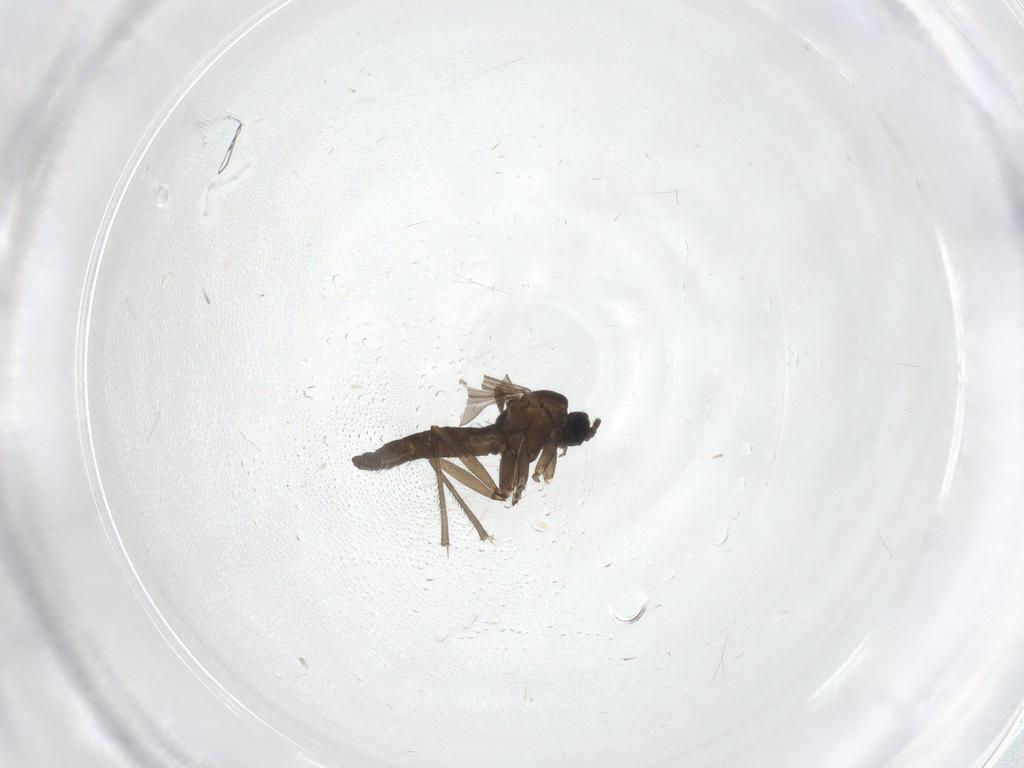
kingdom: Animalia
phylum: Arthropoda
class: Insecta
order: Diptera
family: Sciaridae
